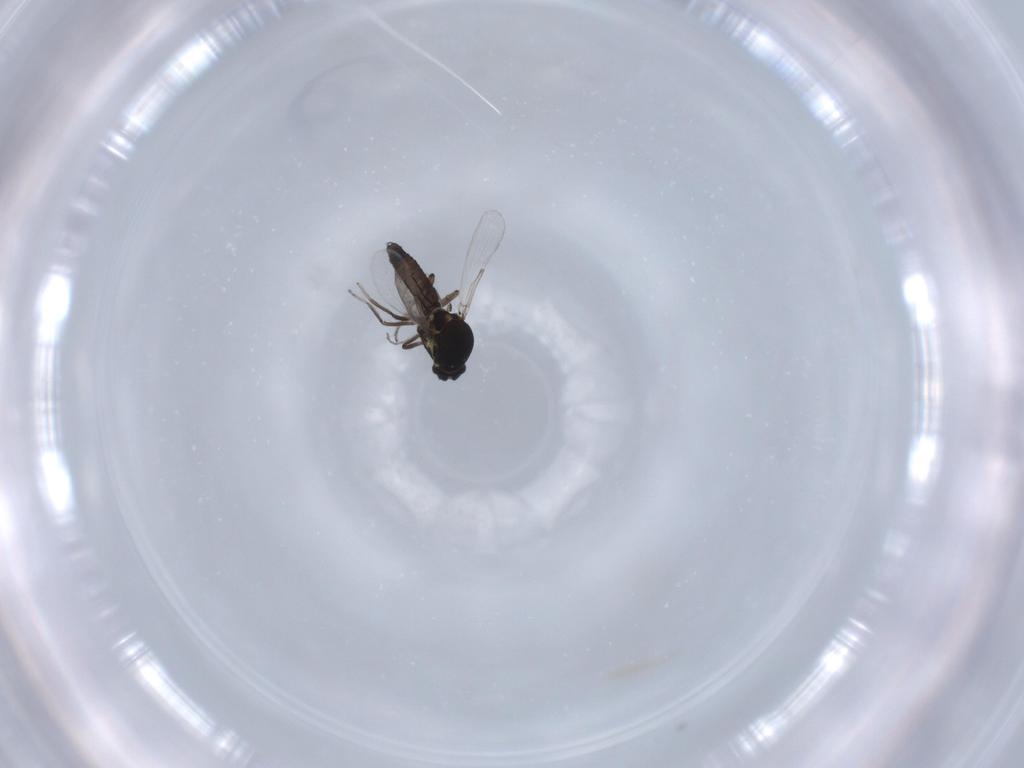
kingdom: Animalia
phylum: Arthropoda
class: Insecta
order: Diptera
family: Ceratopogonidae
